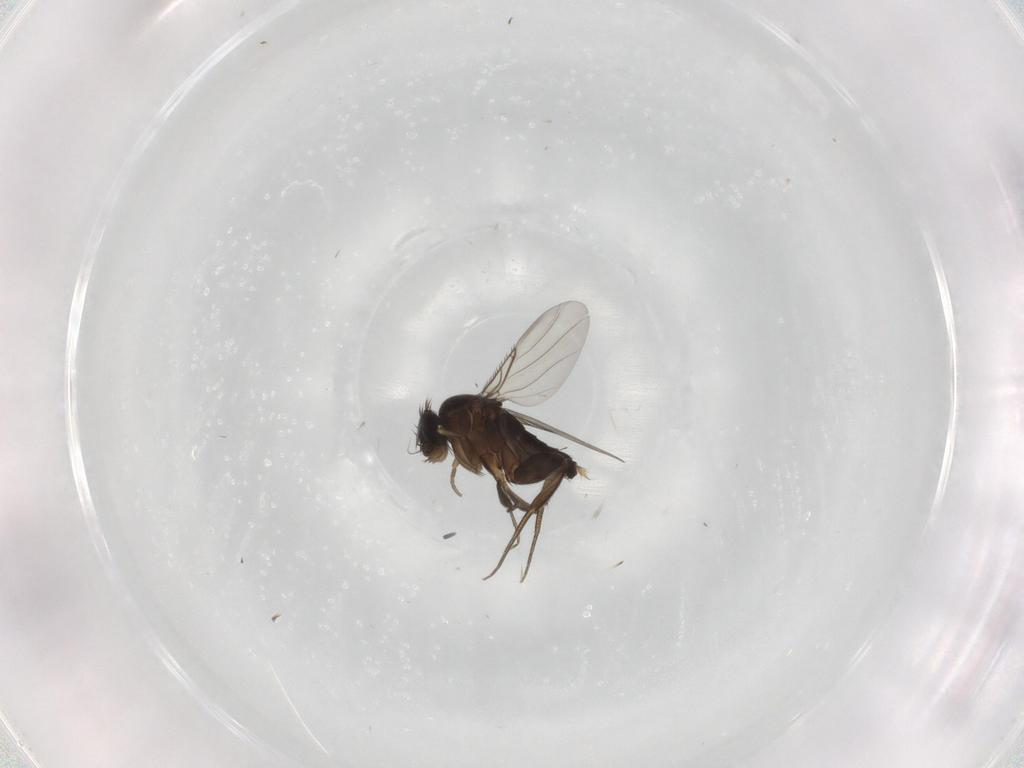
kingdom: Animalia
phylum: Arthropoda
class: Insecta
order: Diptera
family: Phoridae
